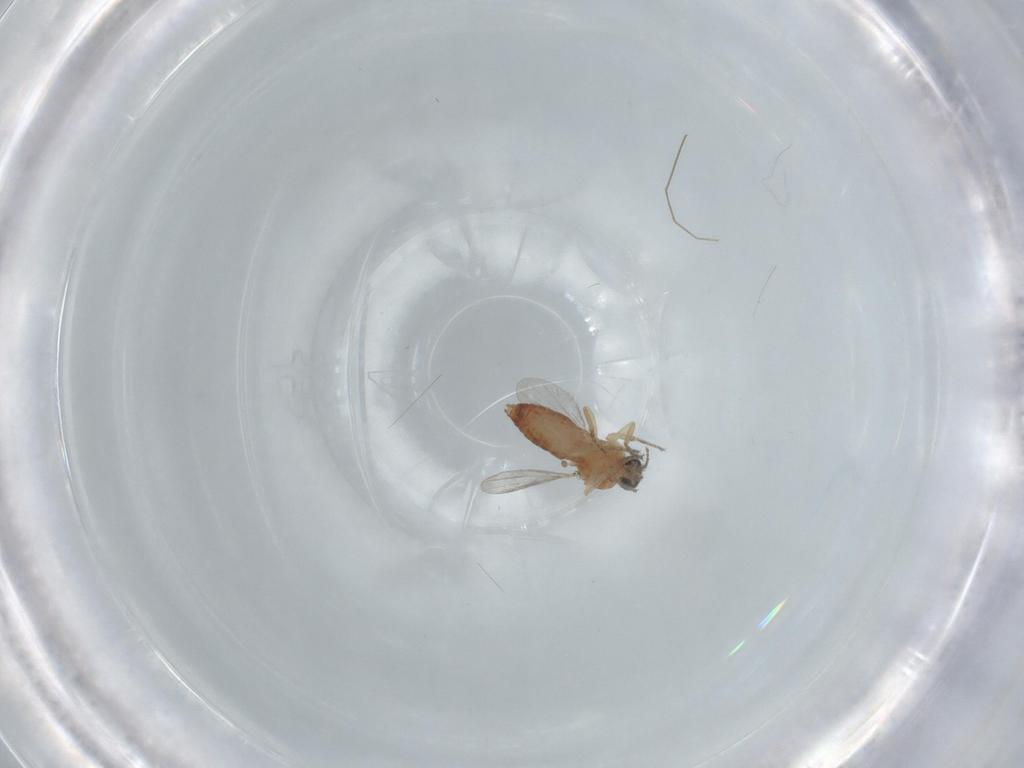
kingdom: Animalia
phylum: Arthropoda
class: Insecta
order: Diptera
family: Ceratopogonidae
